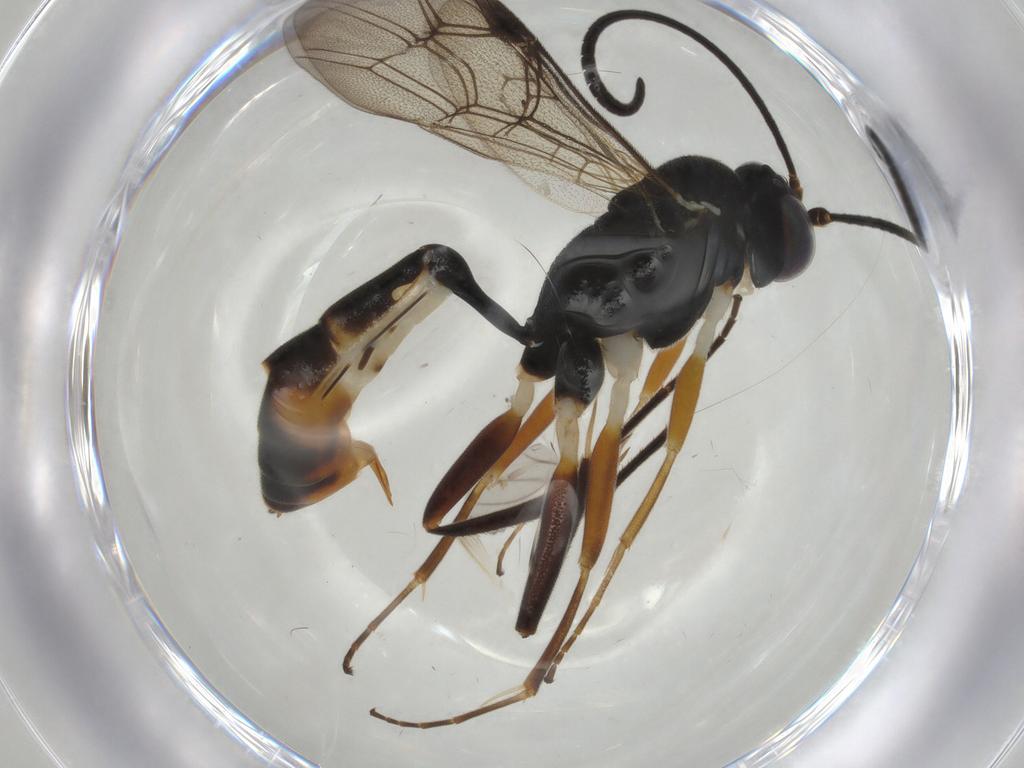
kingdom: Animalia
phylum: Arthropoda
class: Insecta
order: Hymenoptera
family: Ichneumonidae
